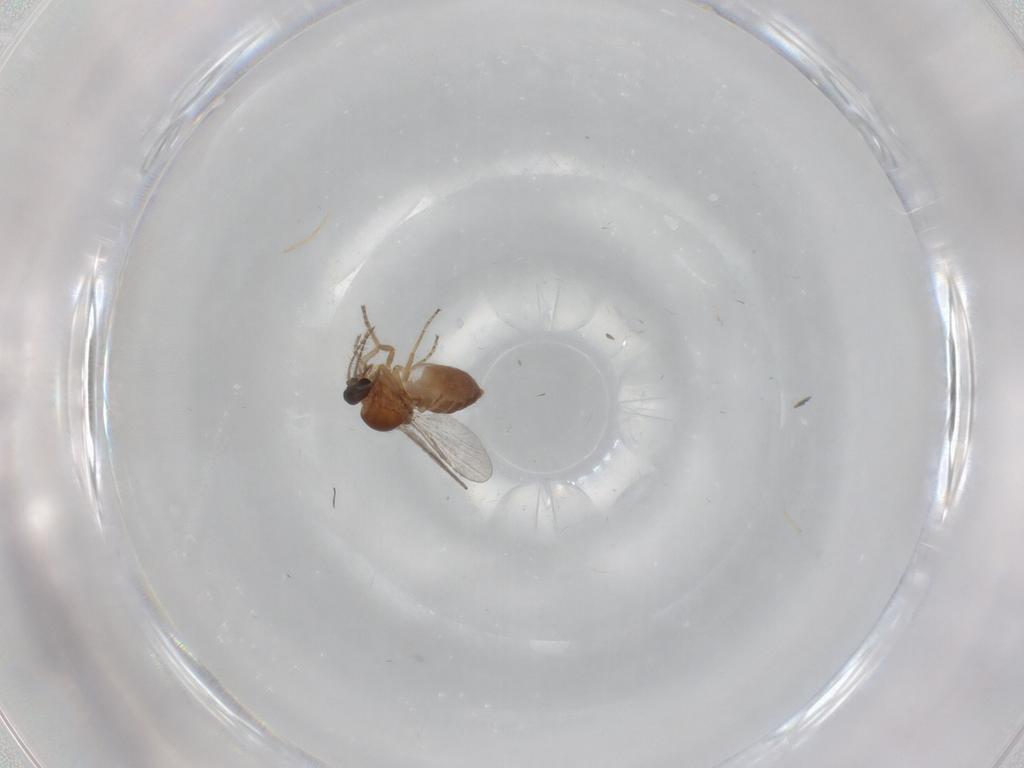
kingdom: Animalia
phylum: Arthropoda
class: Insecta
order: Diptera
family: Ceratopogonidae
